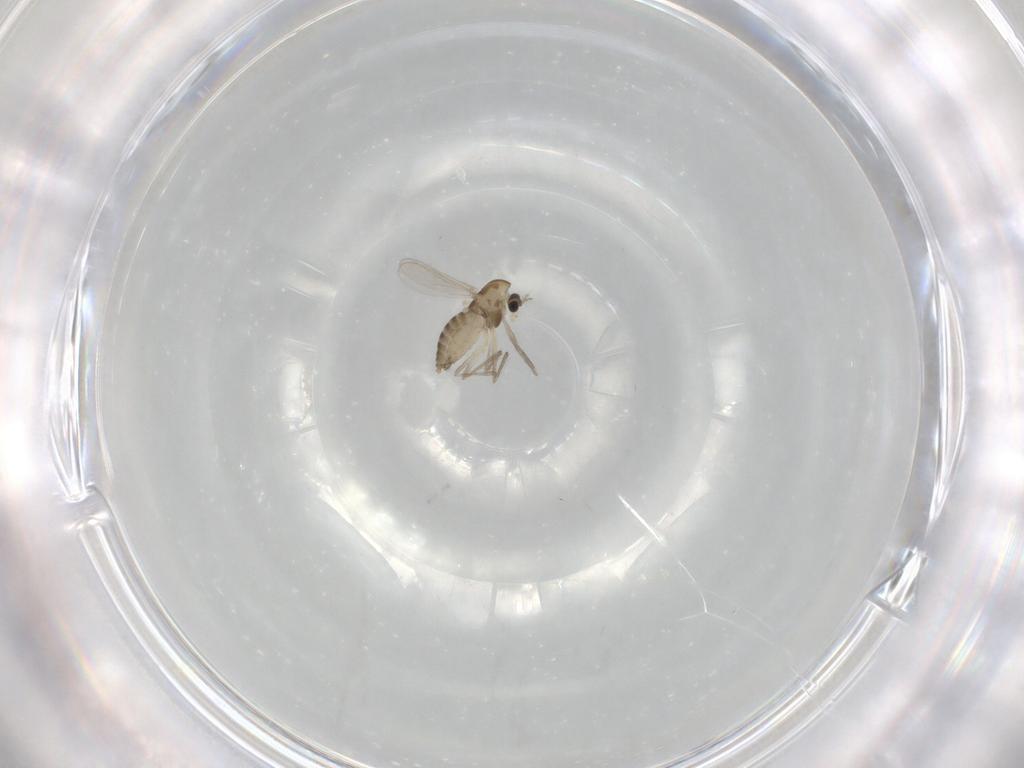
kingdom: Animalia
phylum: Arthropoda
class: Insecta
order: Diptera
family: Chironomidae
